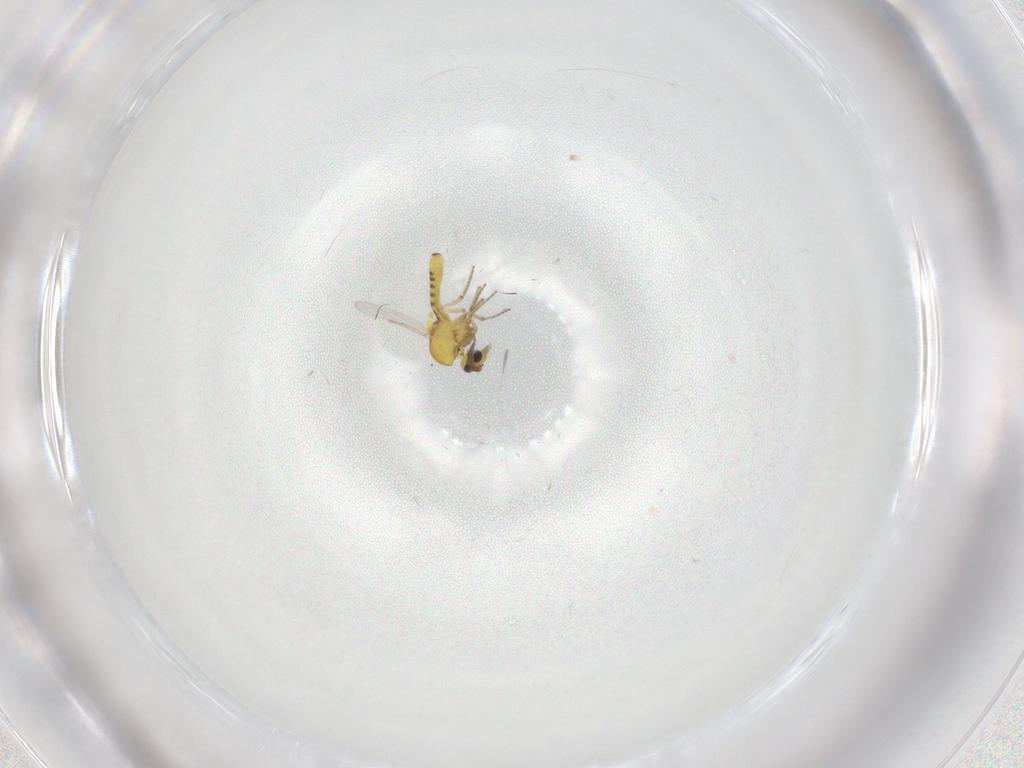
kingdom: Animalia
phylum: Arthropoda
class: Insecta
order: Diptera
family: Ceratopogonidae
